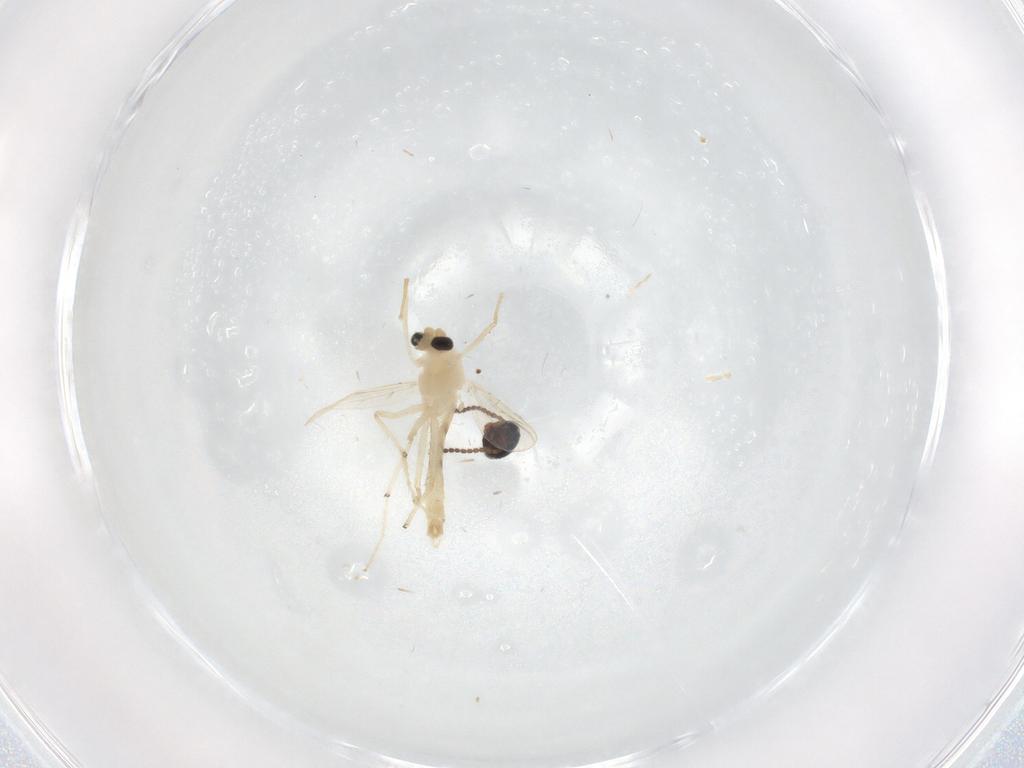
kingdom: Animalia
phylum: Arthropoda
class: Insecta
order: Diptera
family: Chironomidae
